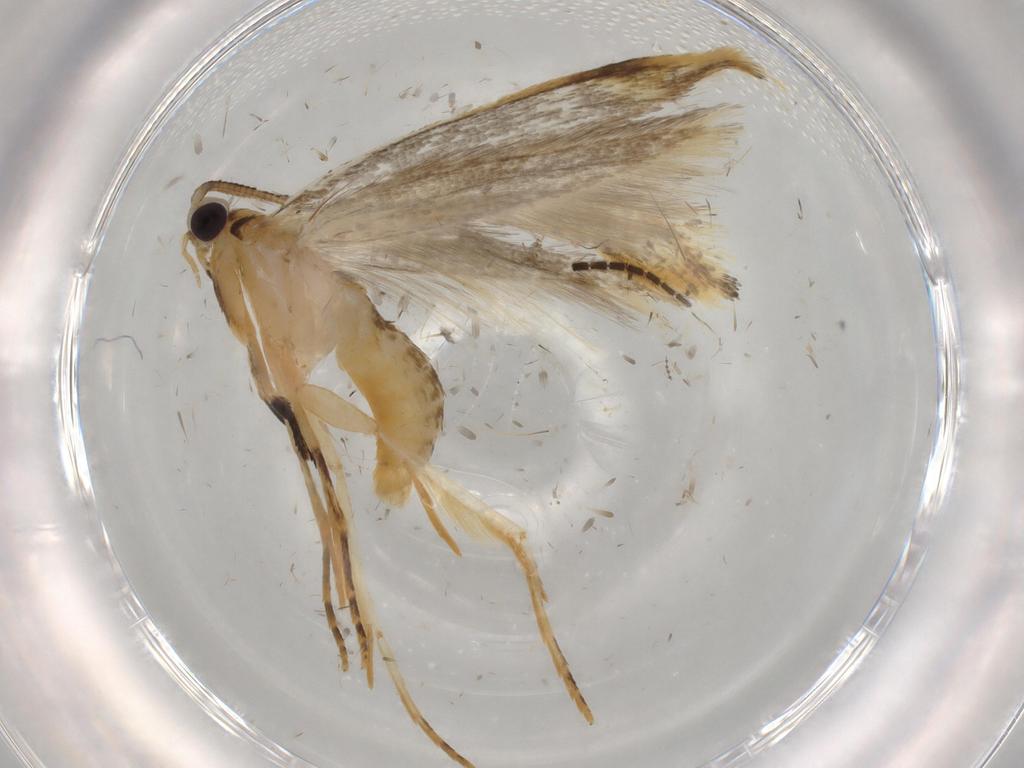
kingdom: Animalia
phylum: Arthropoda
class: Insecta
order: Lepidoptera
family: Tineidae
